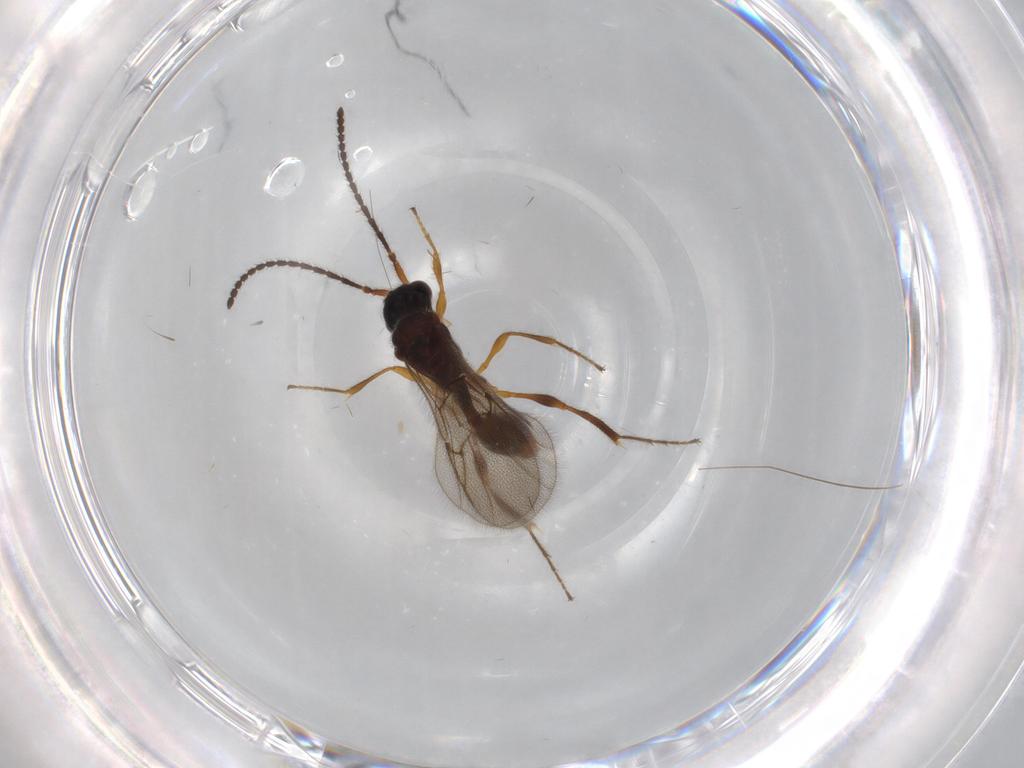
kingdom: Animalia
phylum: Arthropoda
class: Insecta
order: Hymenoptera
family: Diapriidae
